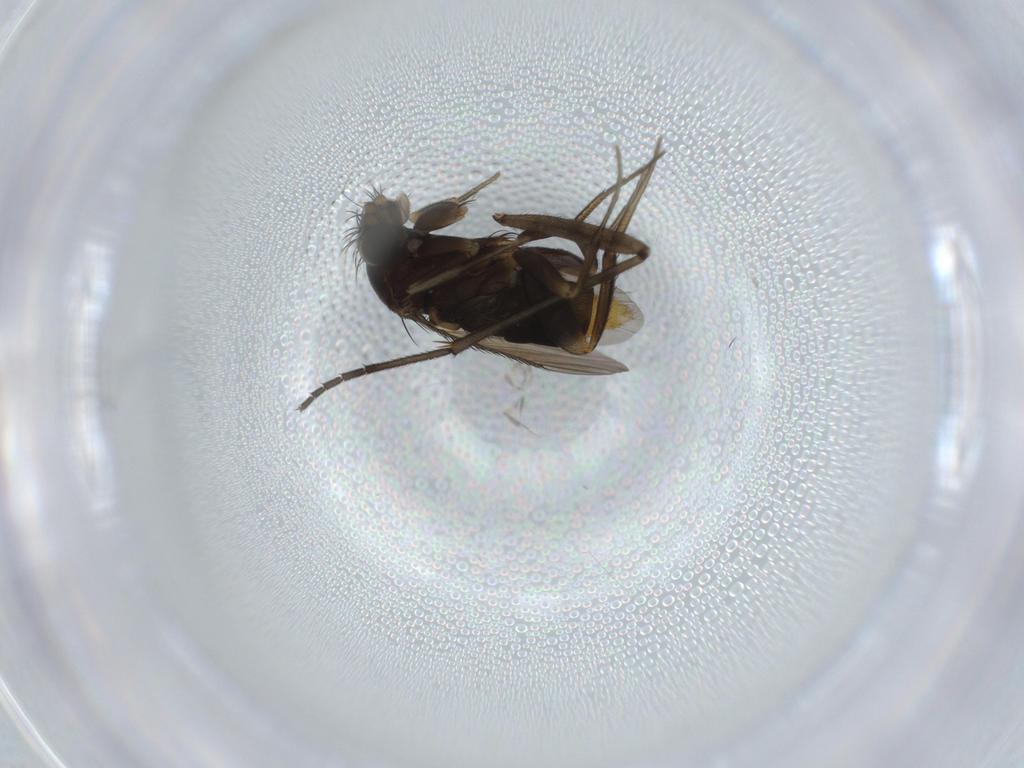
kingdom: Animalia
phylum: Arthropoda
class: Insecta
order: Diptera
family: Phoridae
